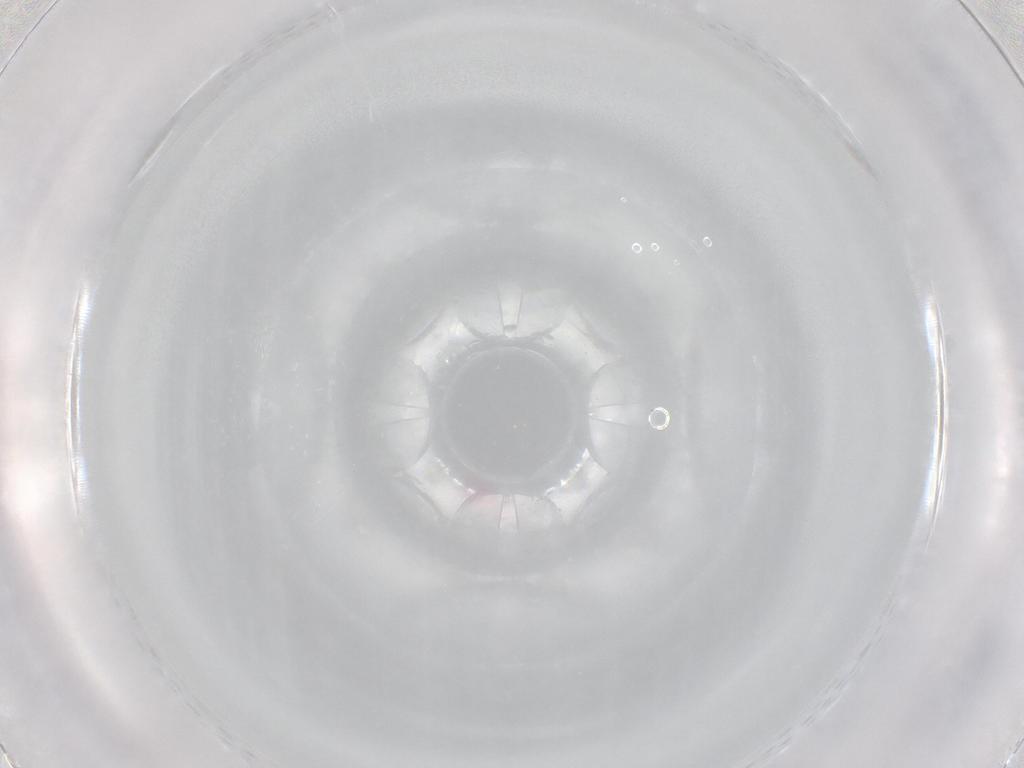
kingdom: Animalia
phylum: Arthropoda
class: Insecta
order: Diptera
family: Phoridae
